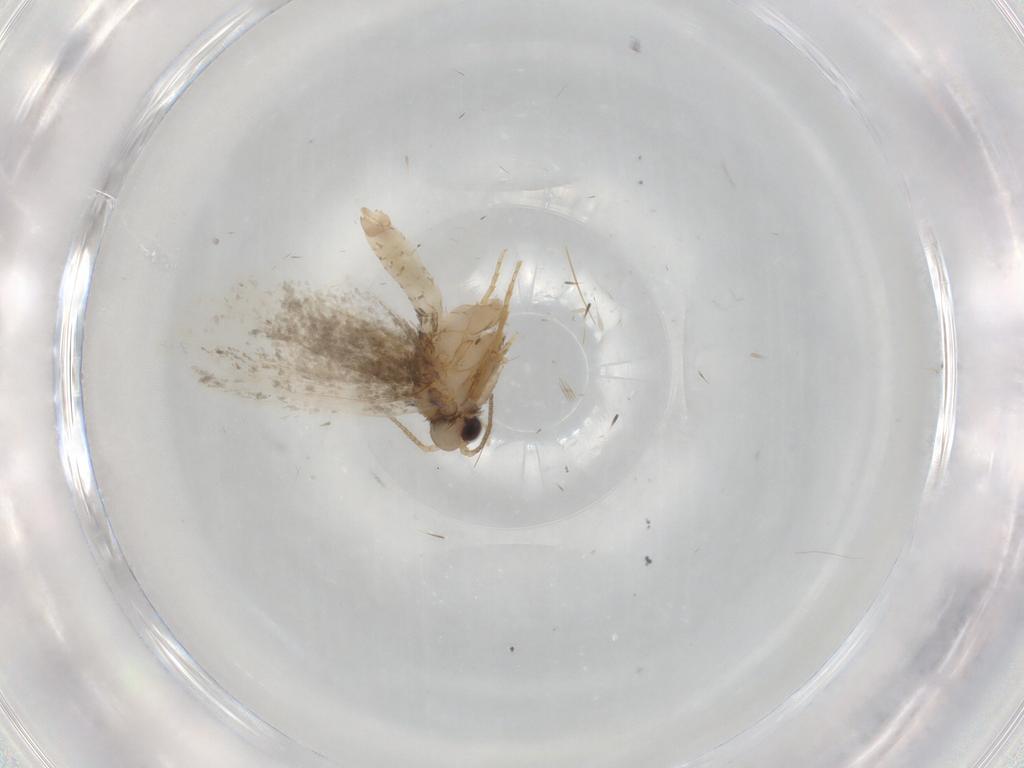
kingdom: Animalia
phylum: Arthropoda
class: Insecta
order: Lepidoptera
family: Psychidae
